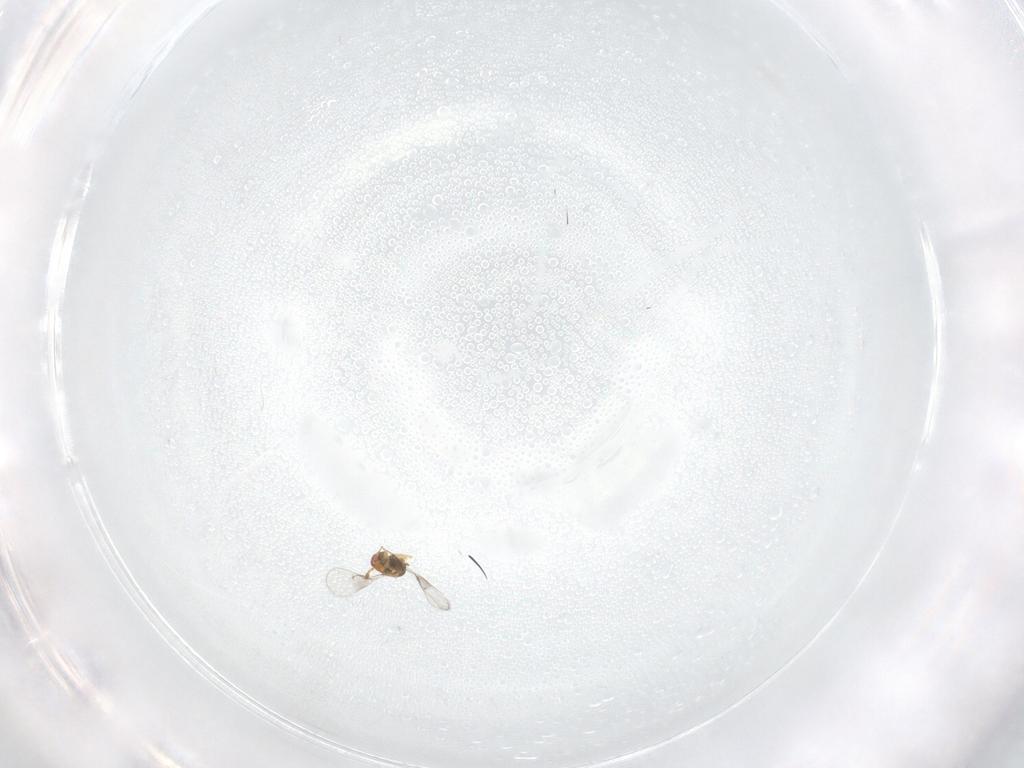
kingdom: Animalia
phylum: Arthropoda
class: Insecta
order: Hymenoptera
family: Trichogrammatidae
